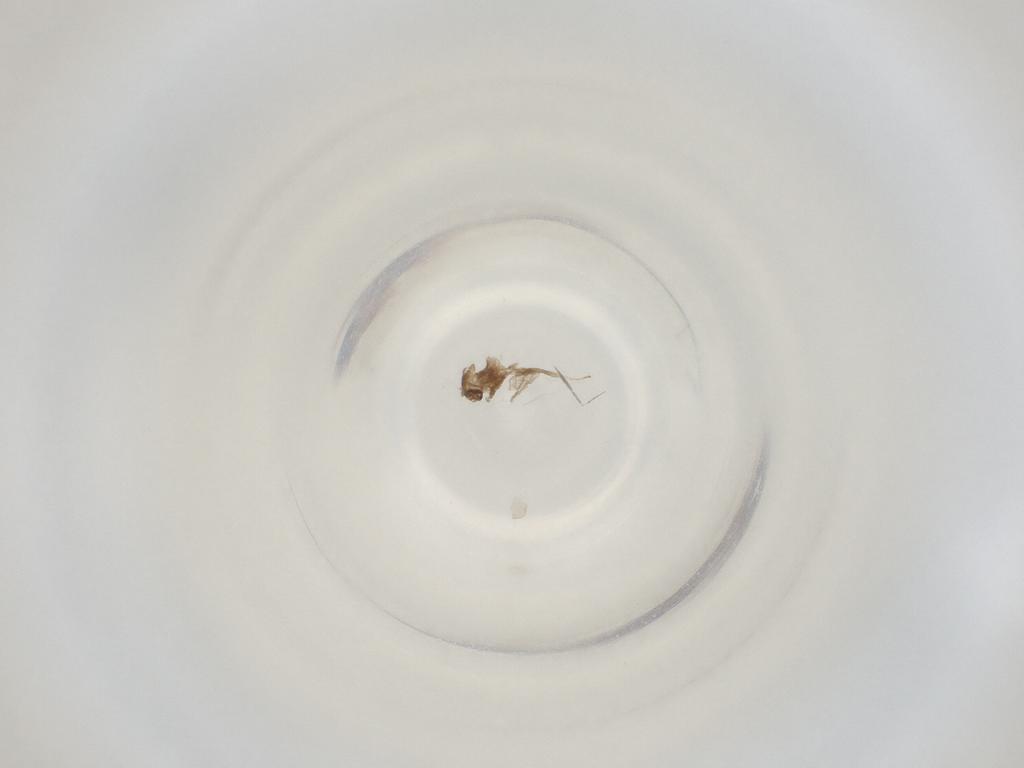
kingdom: Animalia
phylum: Arthropoda
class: Insecta
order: Diptera
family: Cecidomyiidae
